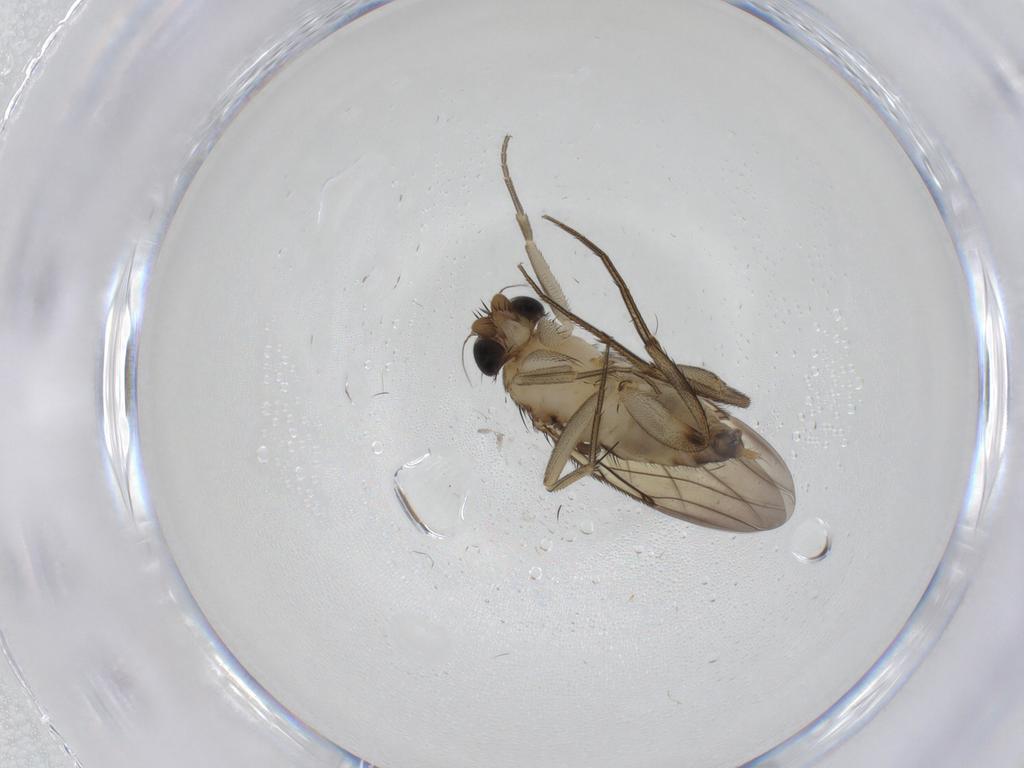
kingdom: Animalia
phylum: Arthropoda
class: Insecta
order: Diptera
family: Phoridae
